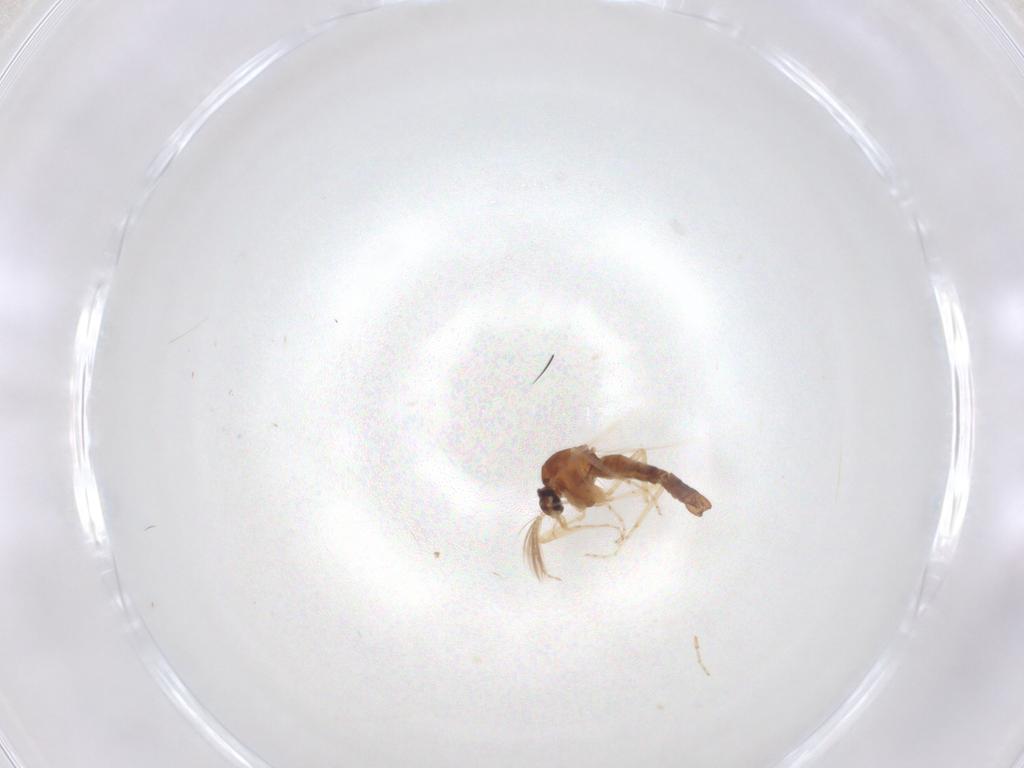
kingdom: Animalia
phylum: Arthropoda
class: Insecta
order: Diptera
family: Ceratopogonidae
